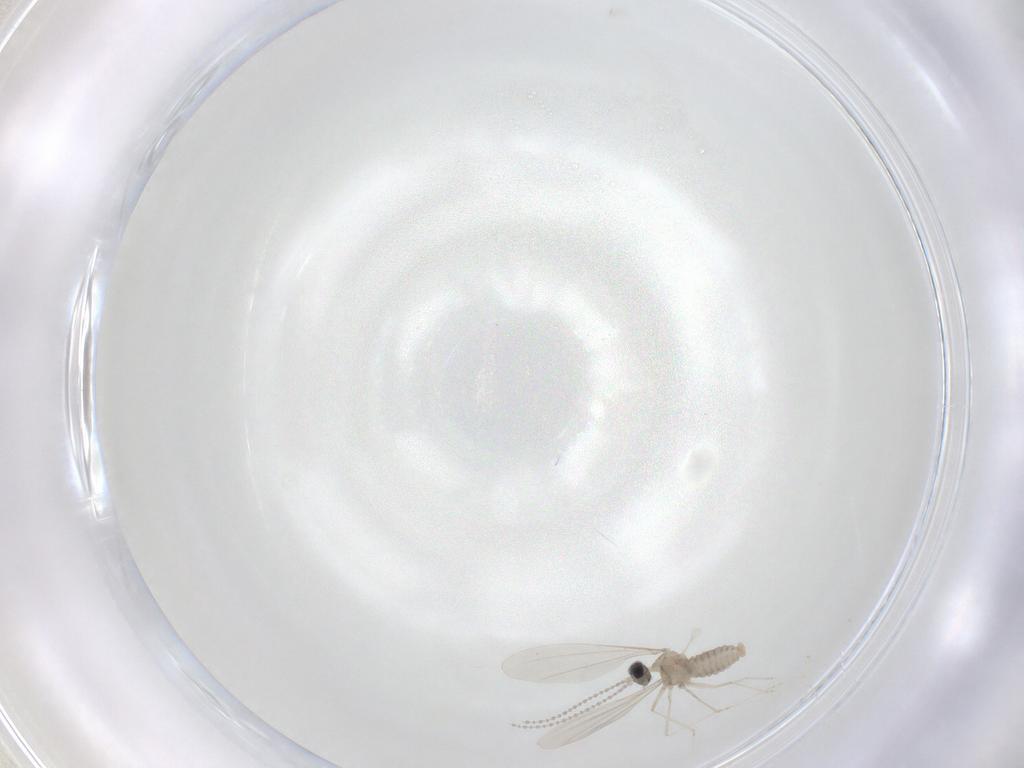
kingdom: Animalia
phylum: Arthropoda
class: Insecta
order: Diptera
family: Cecidomyiidae
